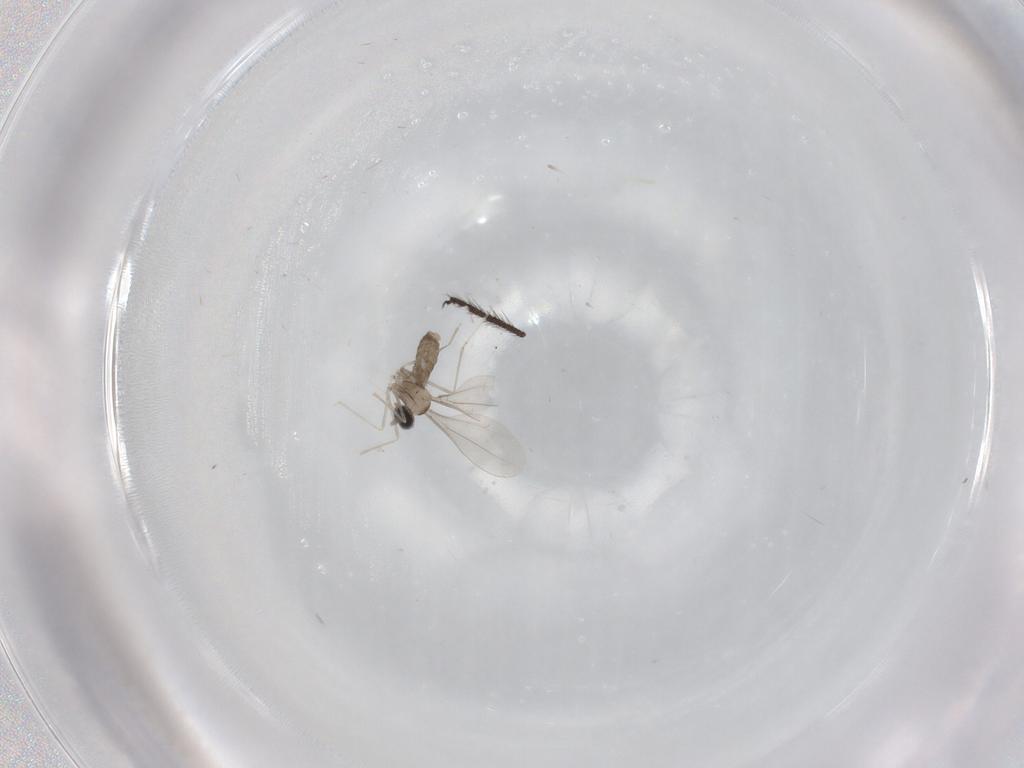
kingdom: Animalia
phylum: Arthropoda
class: Insecta
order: Diptera
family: Cecidomyiidae
